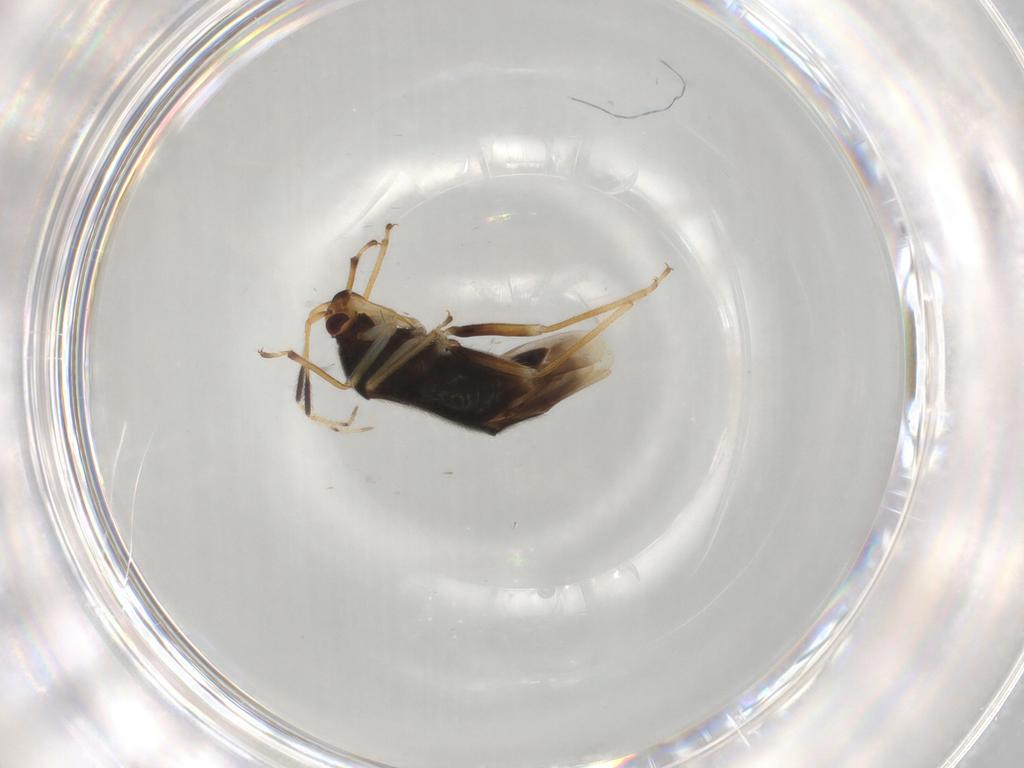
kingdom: Animalia
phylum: Arthropoda
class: Insecta
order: Hemiptera
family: Miridae
